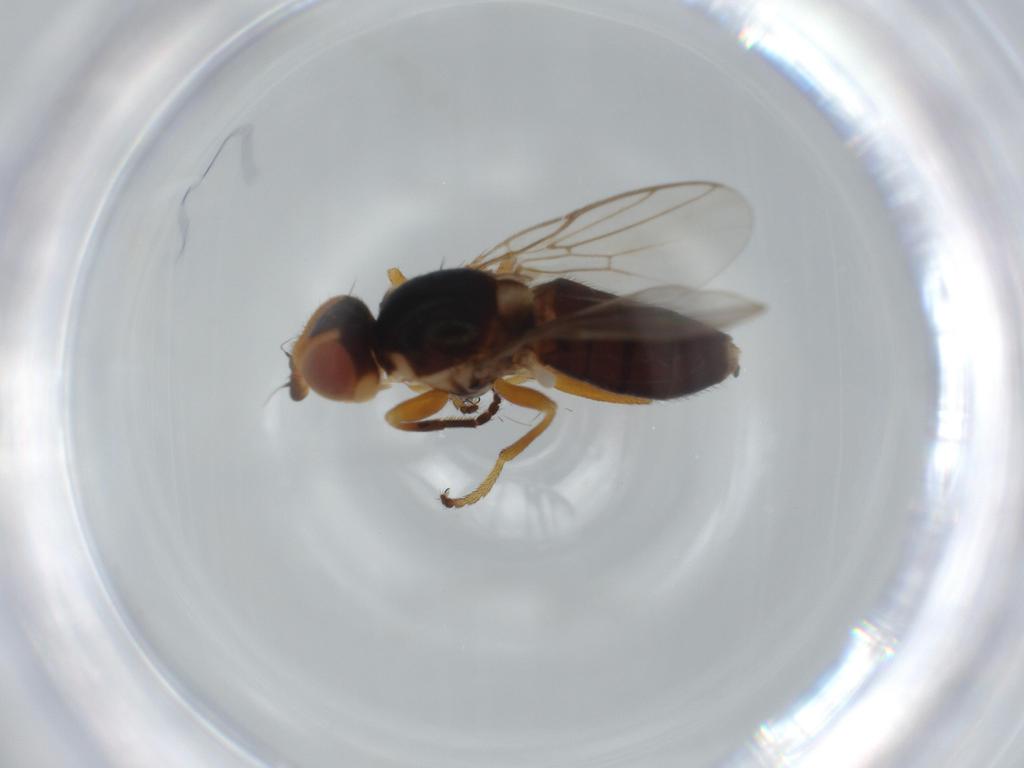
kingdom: Animalia
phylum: Arthropoda
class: Insecta
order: Diptera
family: Chloropidae
